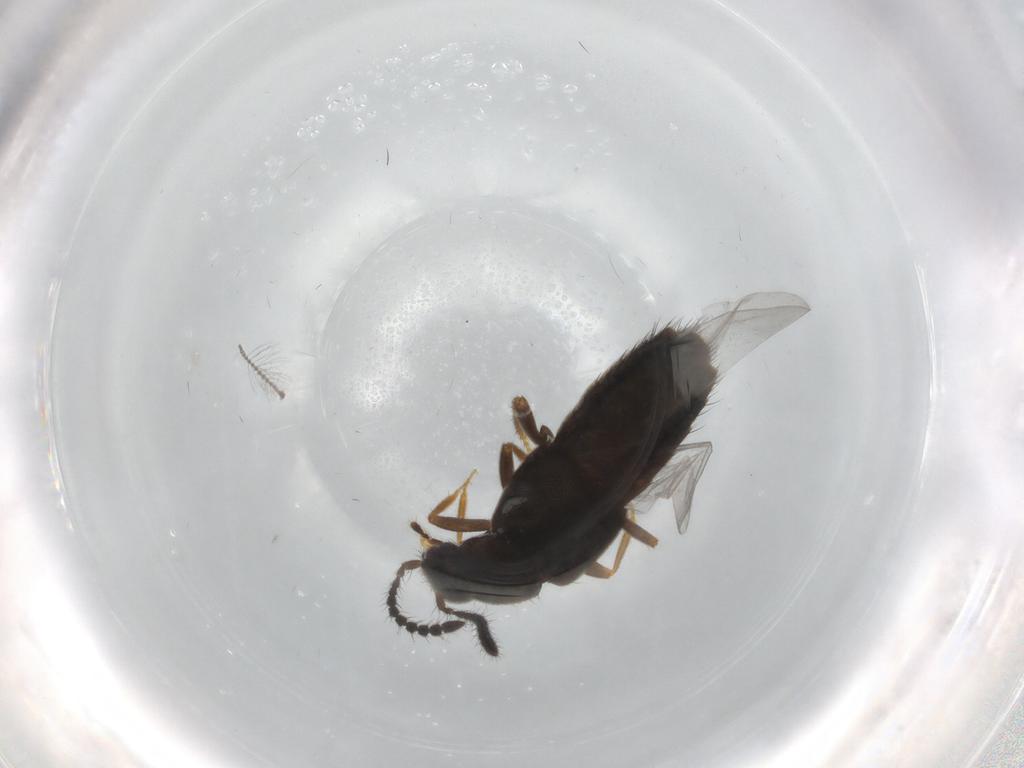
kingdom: Animalia
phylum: Arthropoda
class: Insecta
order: Coleoptera
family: Staphylinidae
